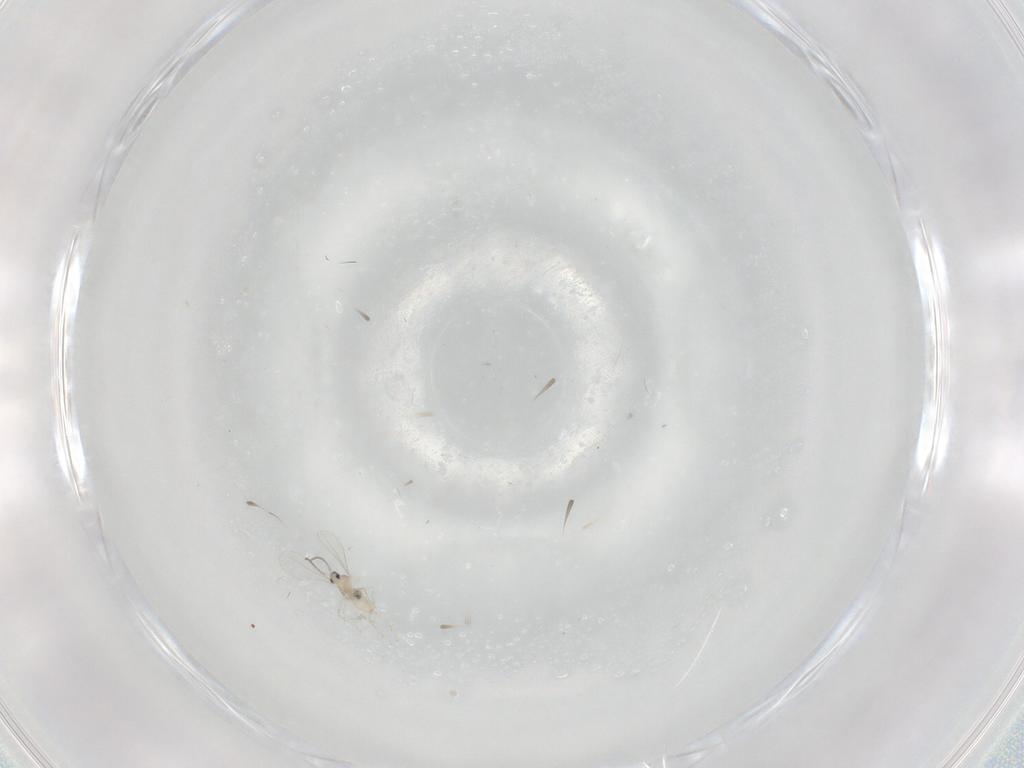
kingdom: Animalia
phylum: Arthropoda
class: Insecta
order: Diptera
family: Cecidomyiidae
